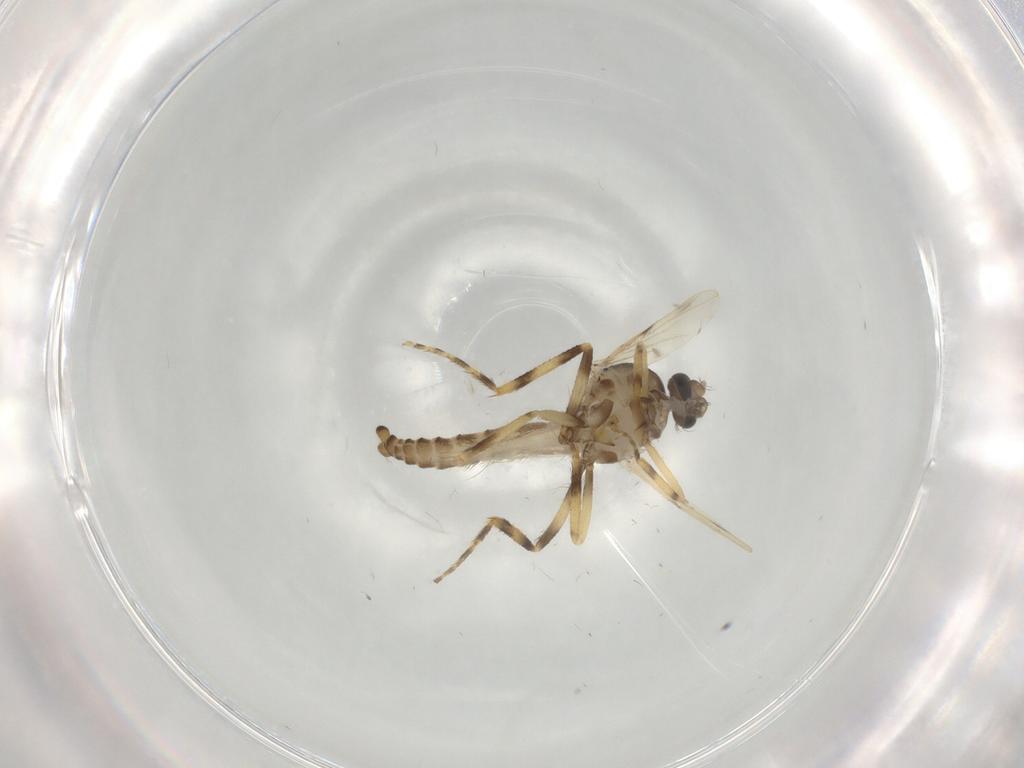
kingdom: Animalia
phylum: Arthropoda
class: Insecta
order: Diptera
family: Ceratopogonidae
